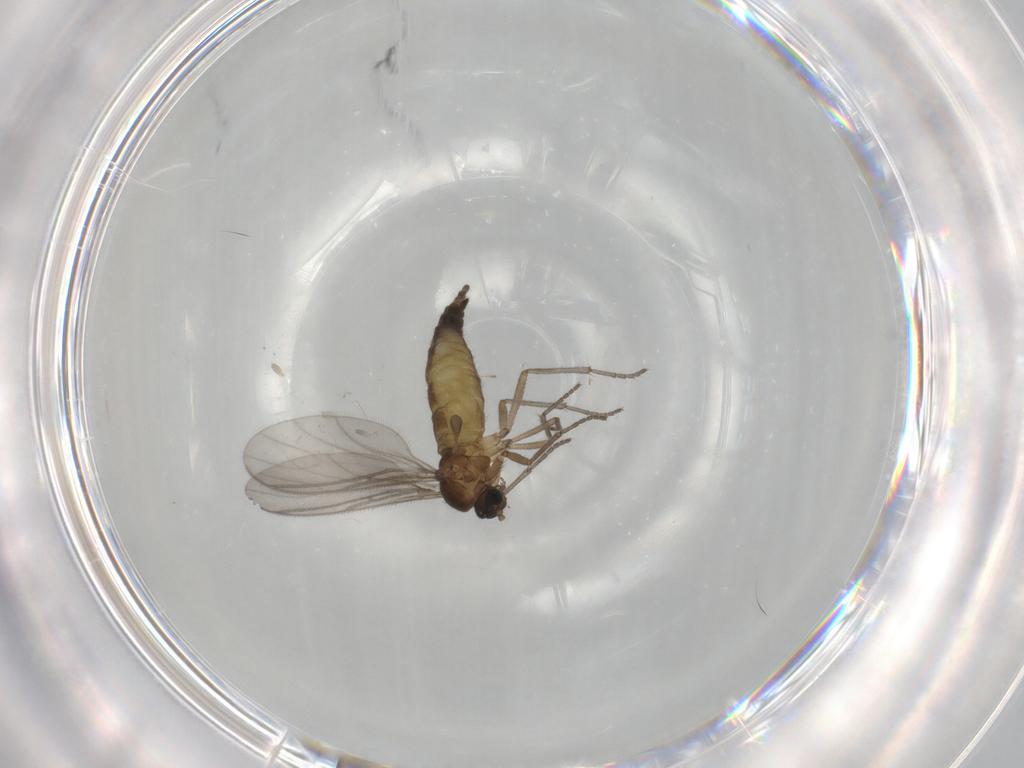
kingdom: Animalia
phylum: Arthropoda
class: Insecta
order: Diptera
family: Sciaridae
